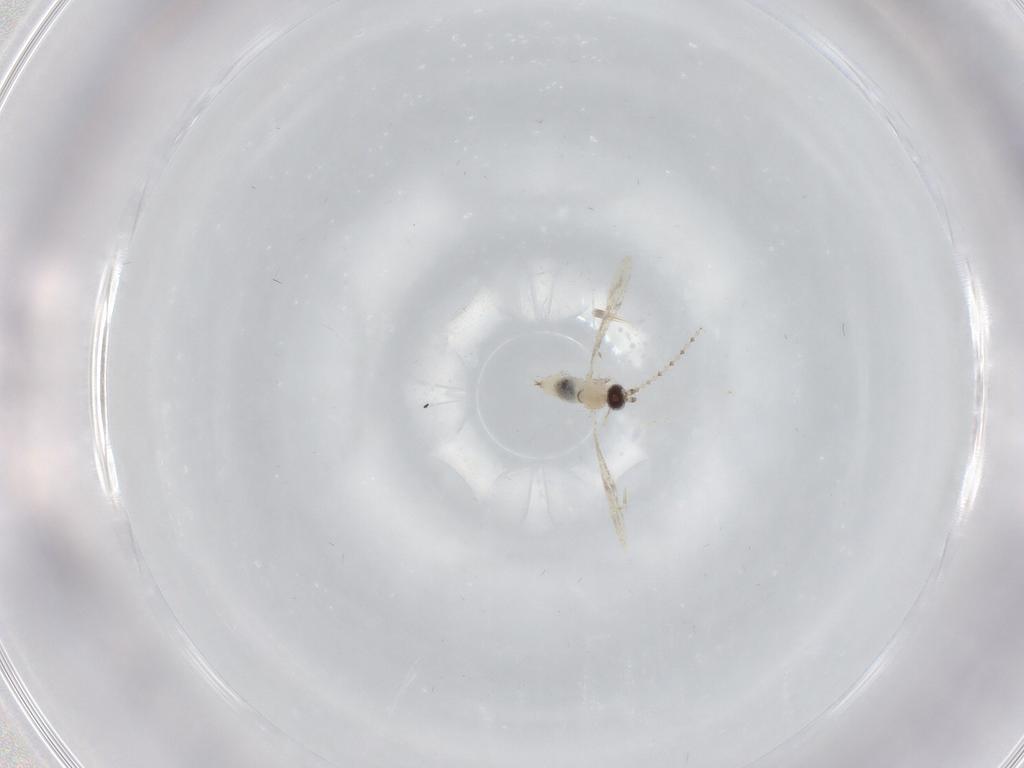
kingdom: Animalia
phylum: Arthropoda
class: Insecta
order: Diptera
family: Cecidomyiidae
